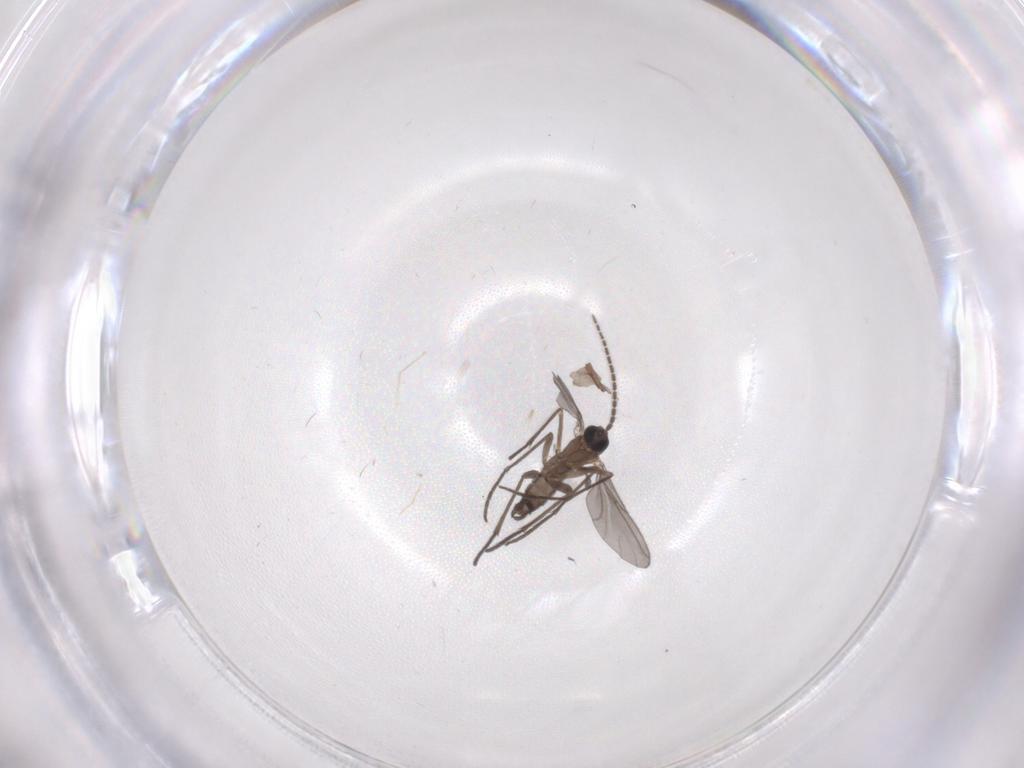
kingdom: Animalia
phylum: Arthropoda
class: Insecta
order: Diptera
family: Sciaridae
